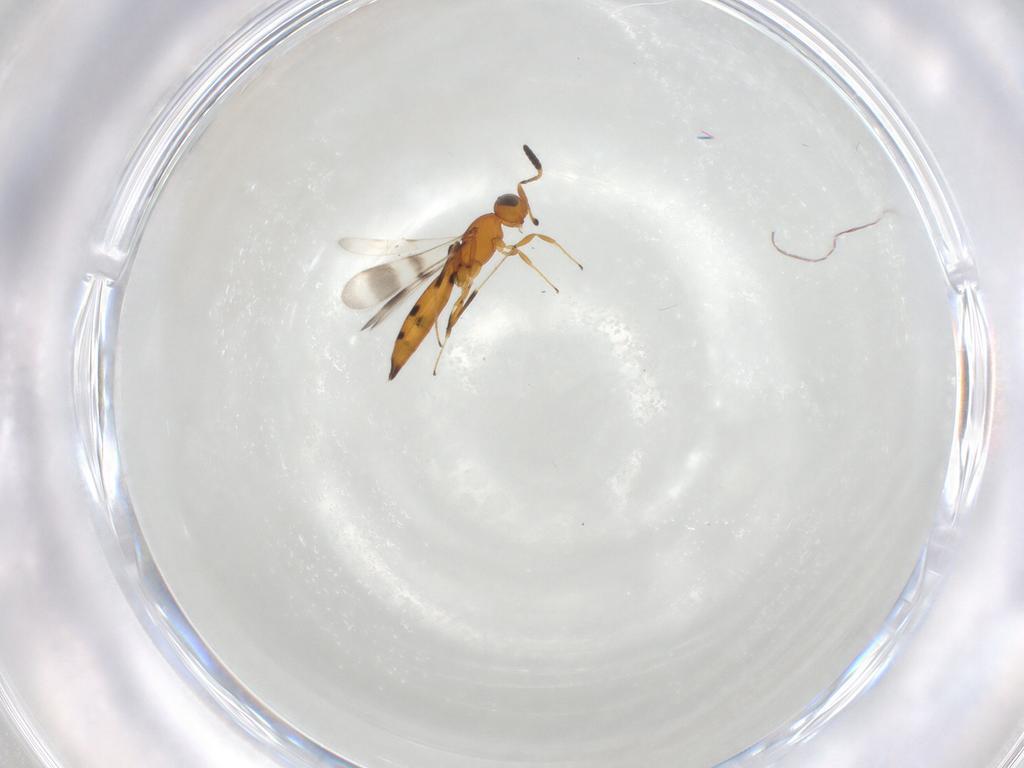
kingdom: Animalia
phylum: Arthropoda
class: Insecta
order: Hymenoptera
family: Scelionidae
